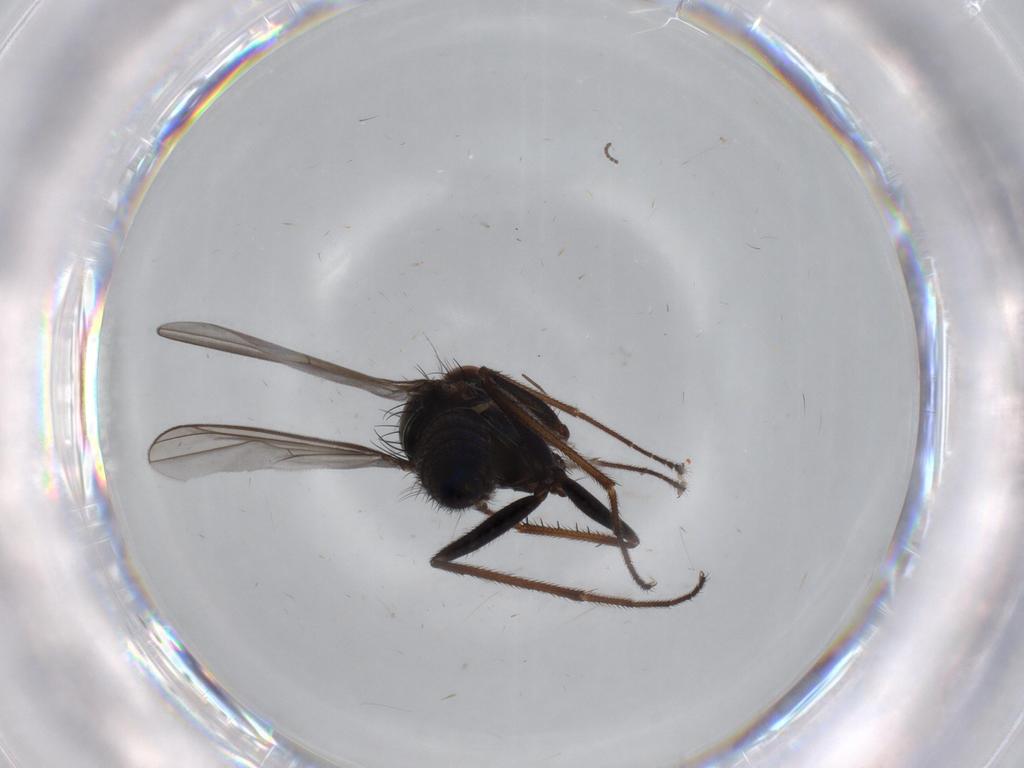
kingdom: Animalia
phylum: Arthropoda
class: Insecta
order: Diptera
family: Dolichopodidae
